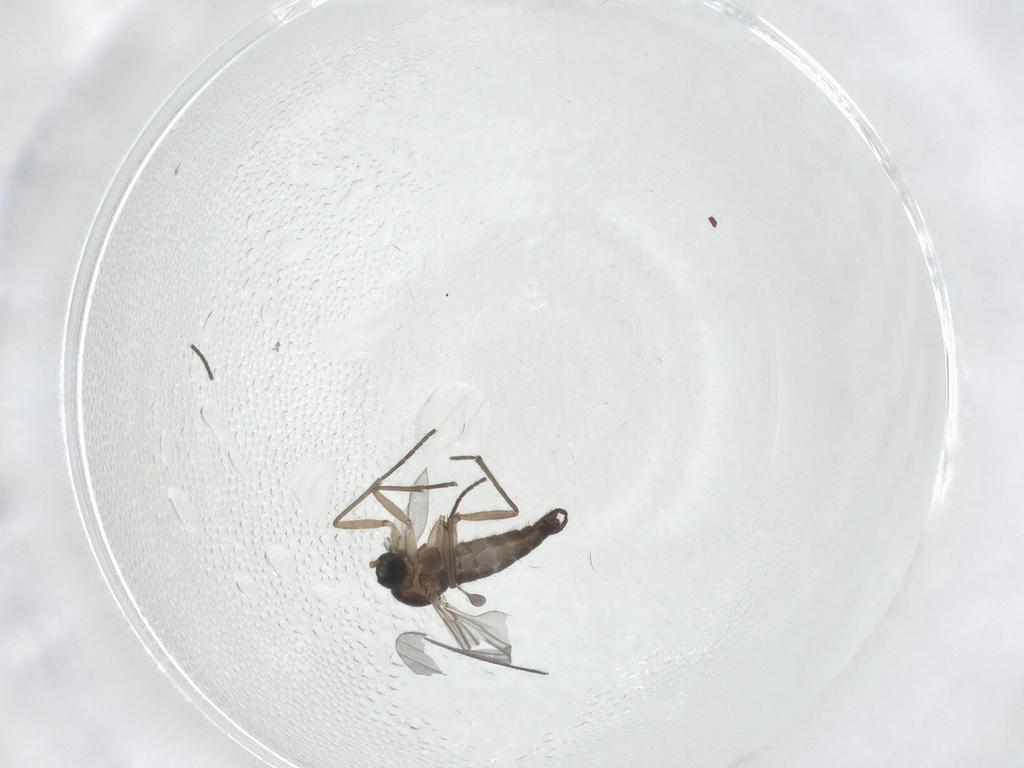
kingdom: Animalia
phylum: Arthropoda
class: Insecta
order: Diptera
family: Sciaridae
